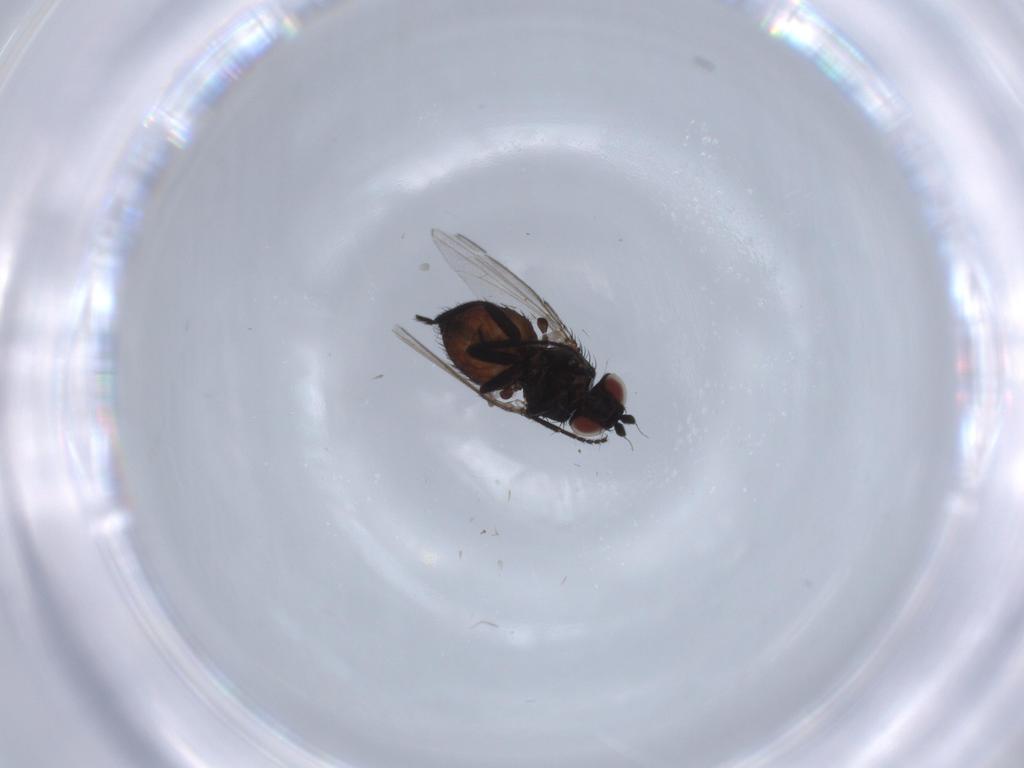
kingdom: Animalia
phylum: Arthropoda
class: Insecta
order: Diptera
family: Milichiidae
